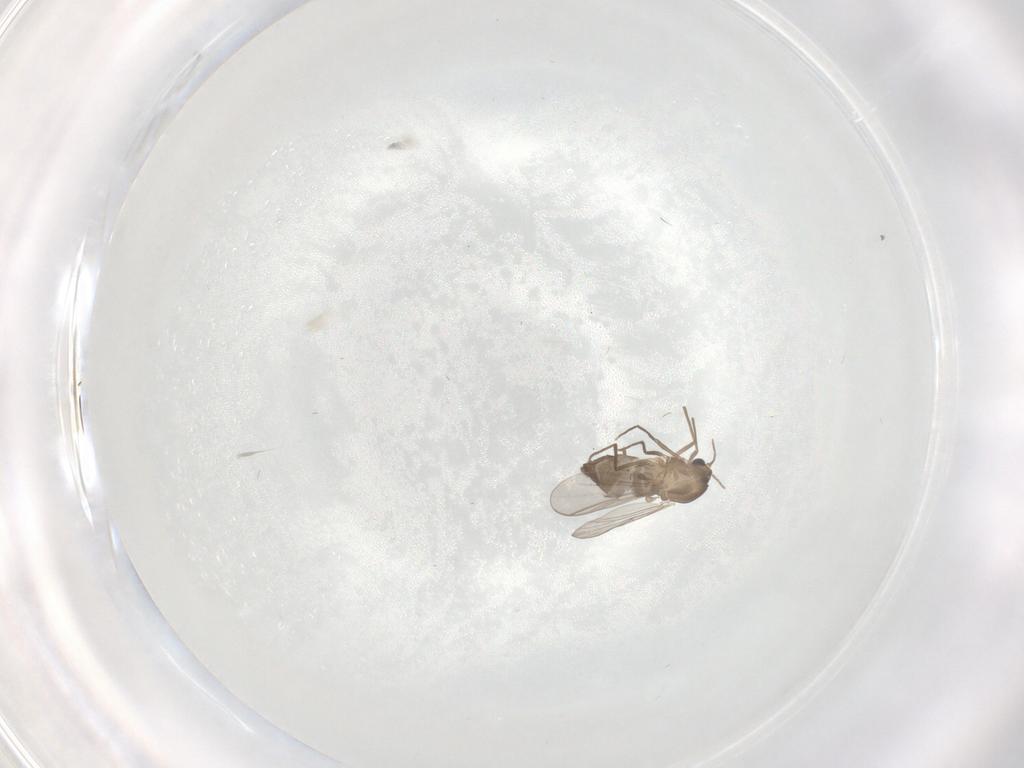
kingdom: Animalia
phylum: Arthropoda
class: Insecta
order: Diptera
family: Chironomidae
